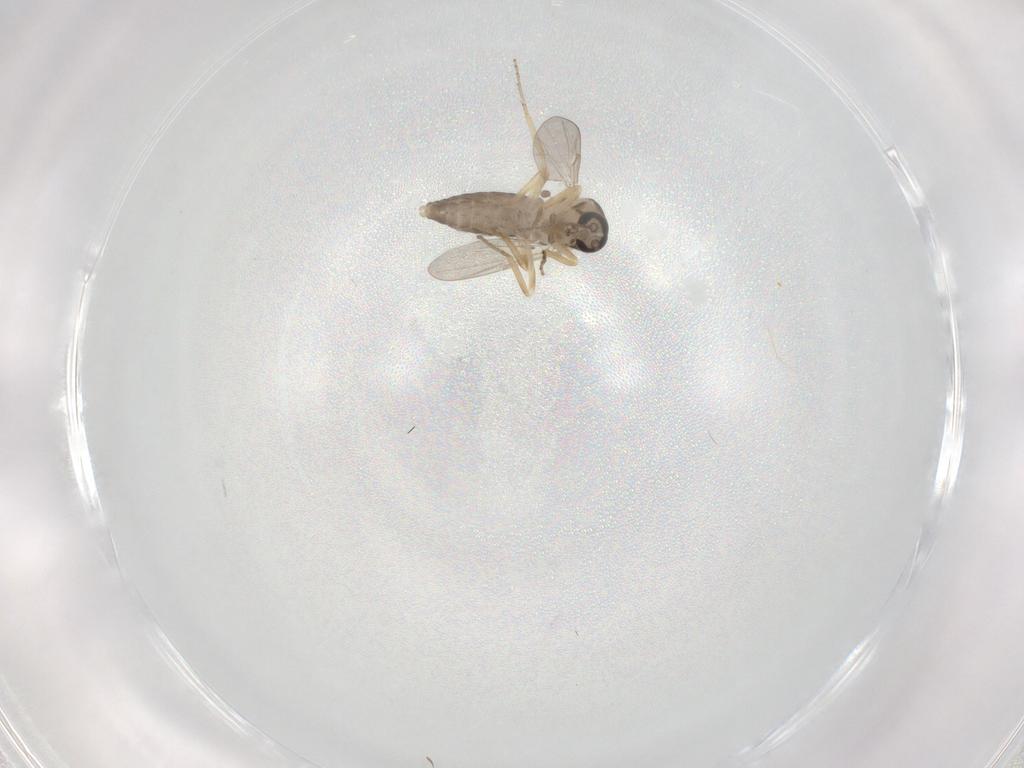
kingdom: Animalia
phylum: Arthropoda
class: Insecta
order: Diptera
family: Ceratopogonidae
